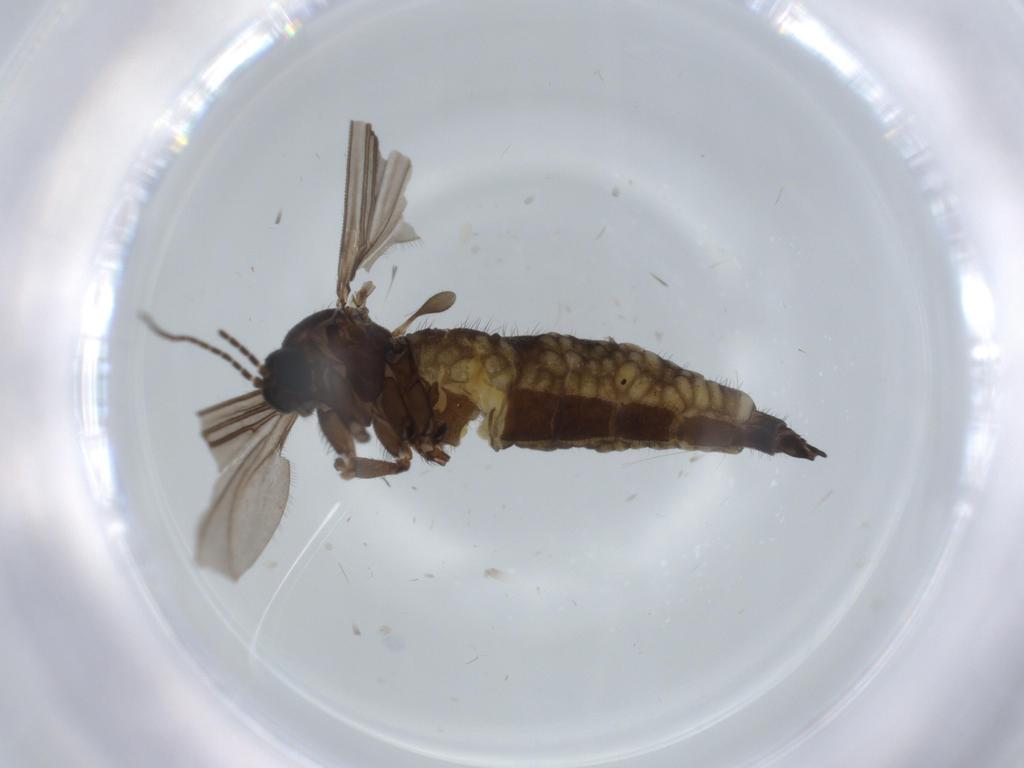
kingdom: Animalia
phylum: Arthropoda
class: Insecta
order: Diptera
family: Sciaridae
